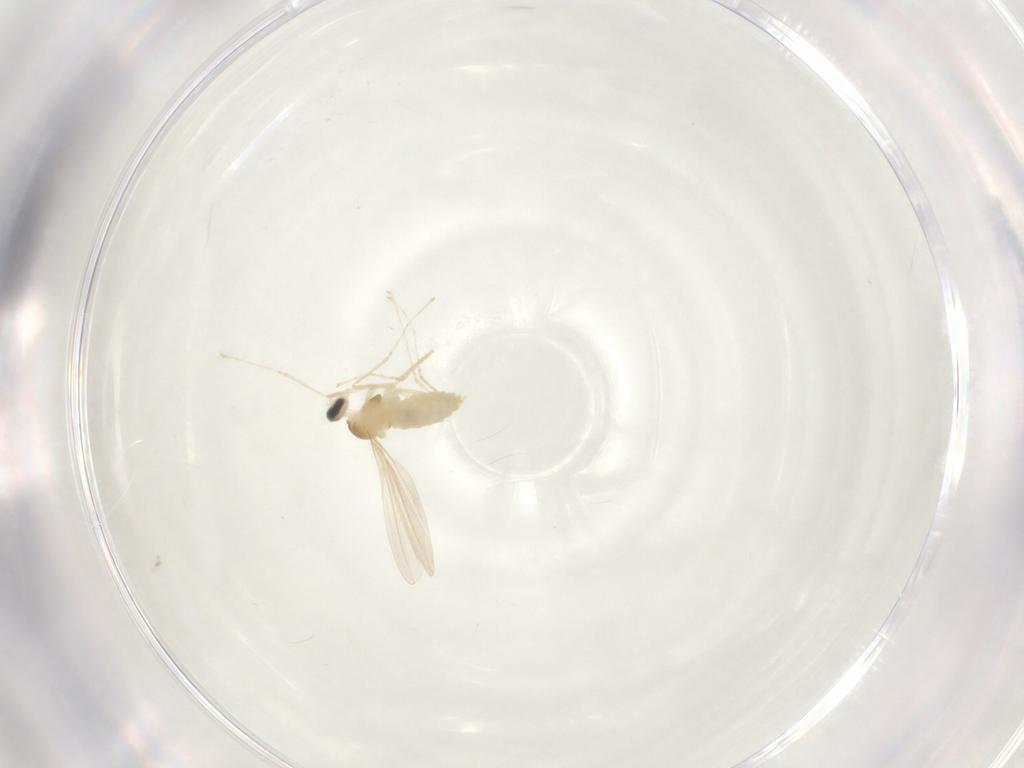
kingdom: Animalia
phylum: Arthropoda
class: Insecta
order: Diptera
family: Cecidomyiidae
